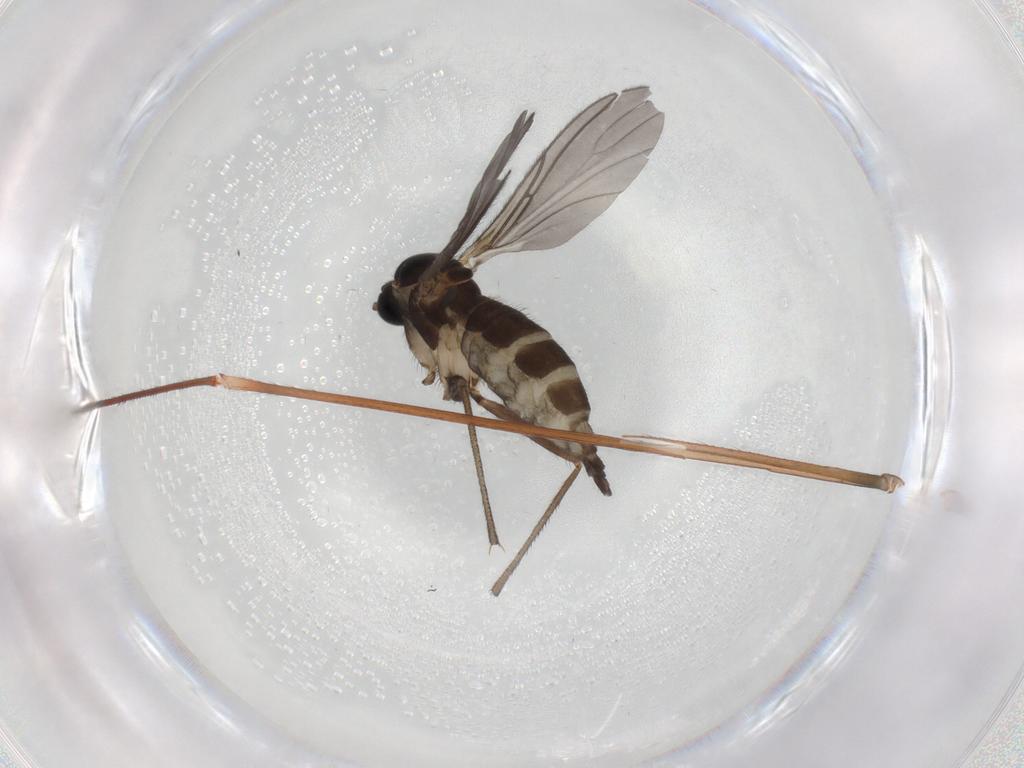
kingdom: Animalia
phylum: Arthropoda
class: Insecta
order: Diptera
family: Sciaridae
